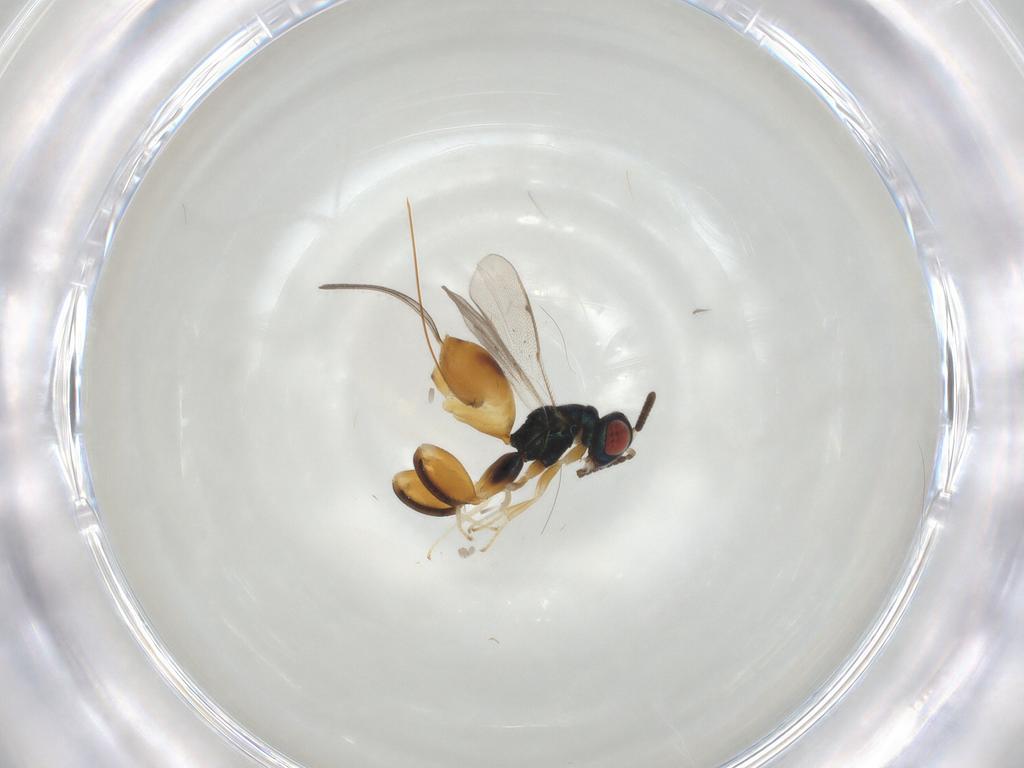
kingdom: Animalia
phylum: Arthropoda
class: Insecta
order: Hymenoptera
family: Torymidae
